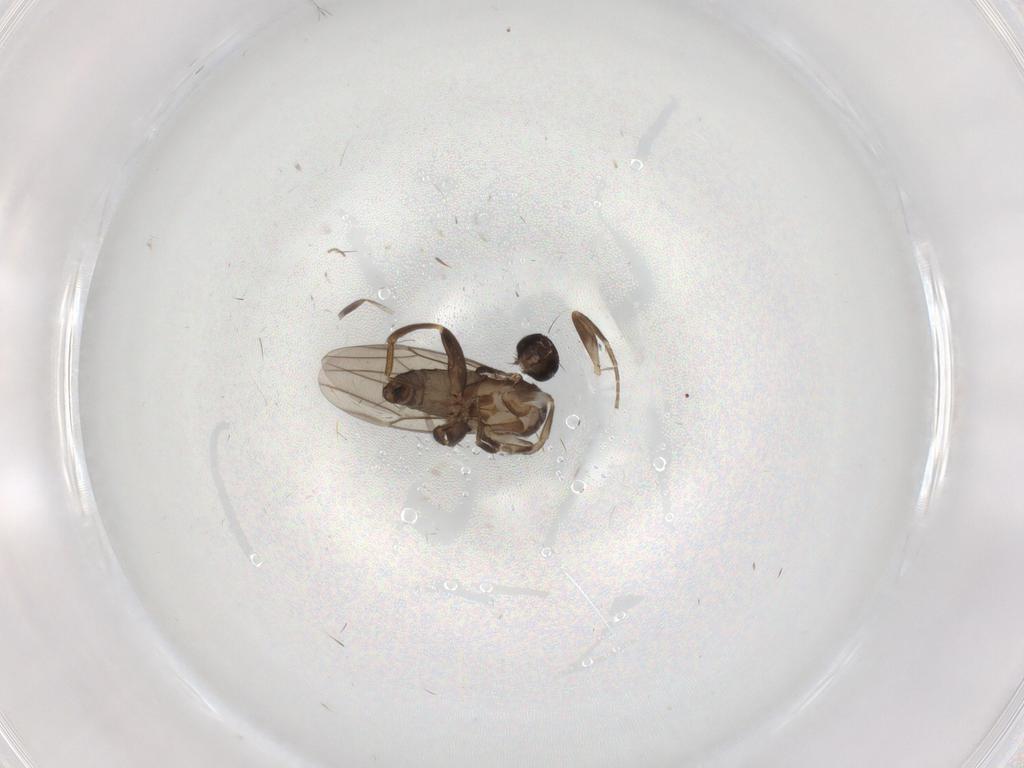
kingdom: Animalia
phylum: Arthropoda
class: Insecta
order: Diptera
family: Phoridae
